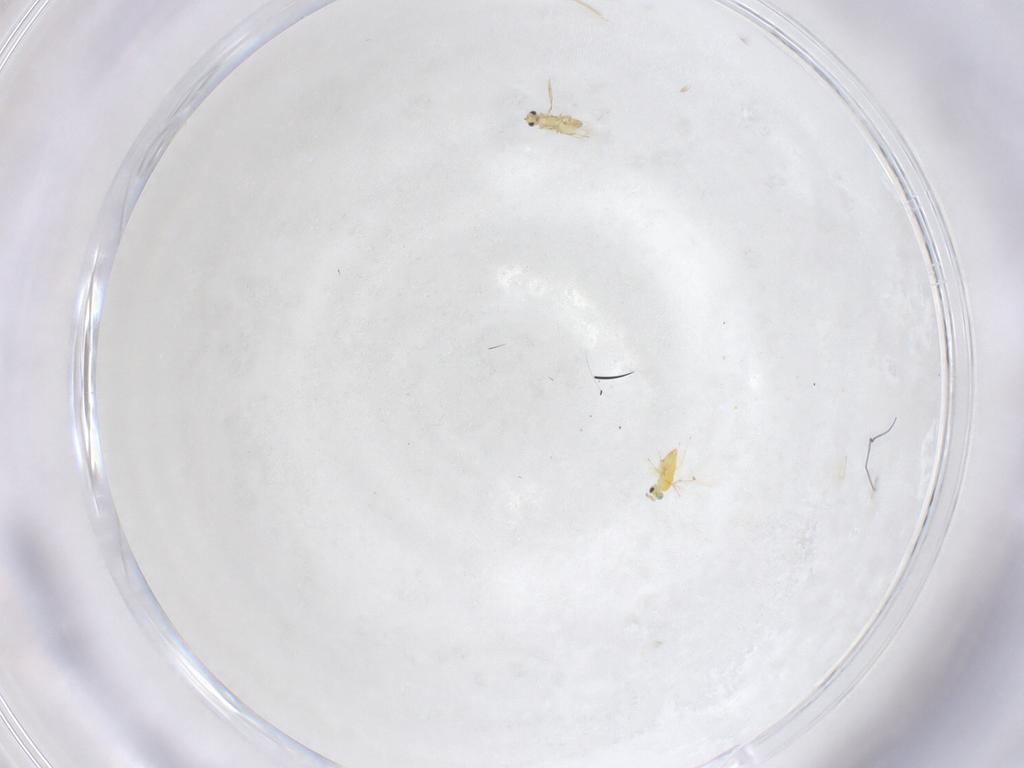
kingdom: Animalia
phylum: Arthropoda
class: Insecta
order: Hymenoptera
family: Trichogrammatidae
